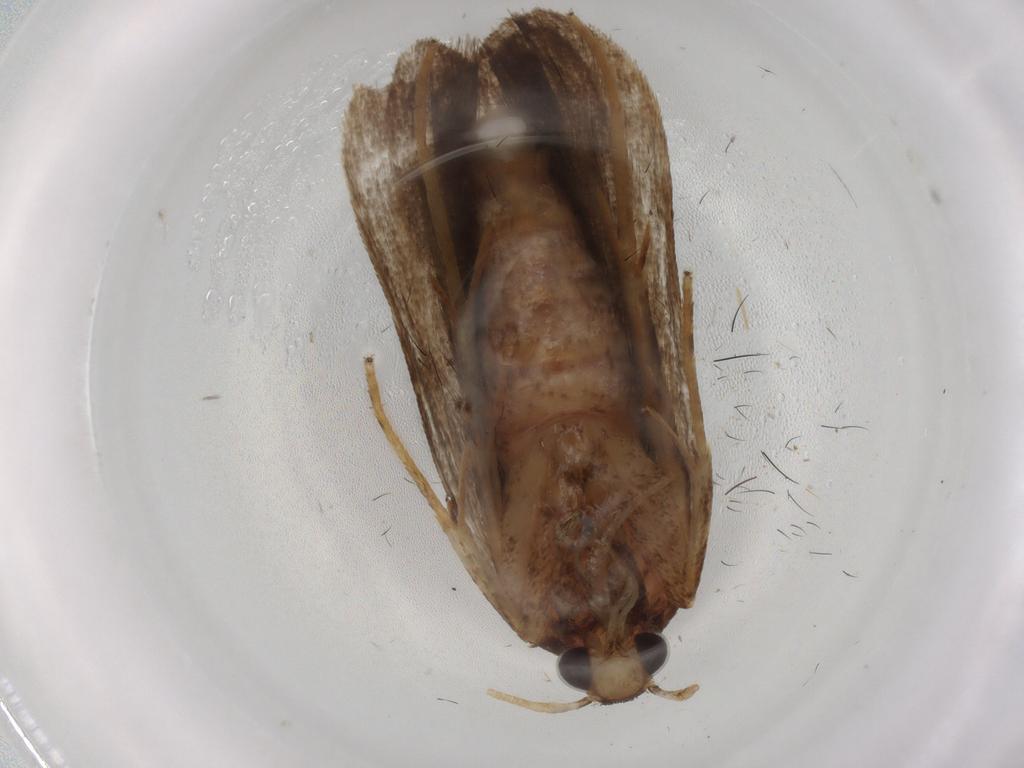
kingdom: Animalia
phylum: Arthropoda
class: Insecta
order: Lepidoptera
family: Autostichidae
